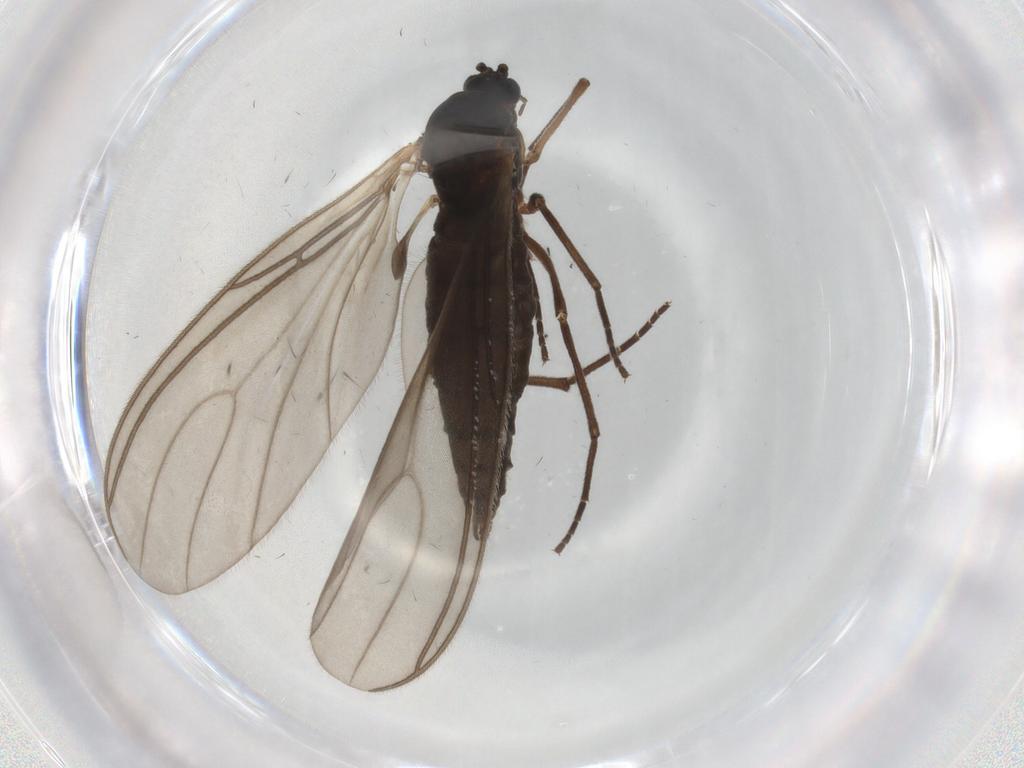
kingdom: Animalia
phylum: Arthropoda
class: Insecta
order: Diptera
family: Sciaridae
